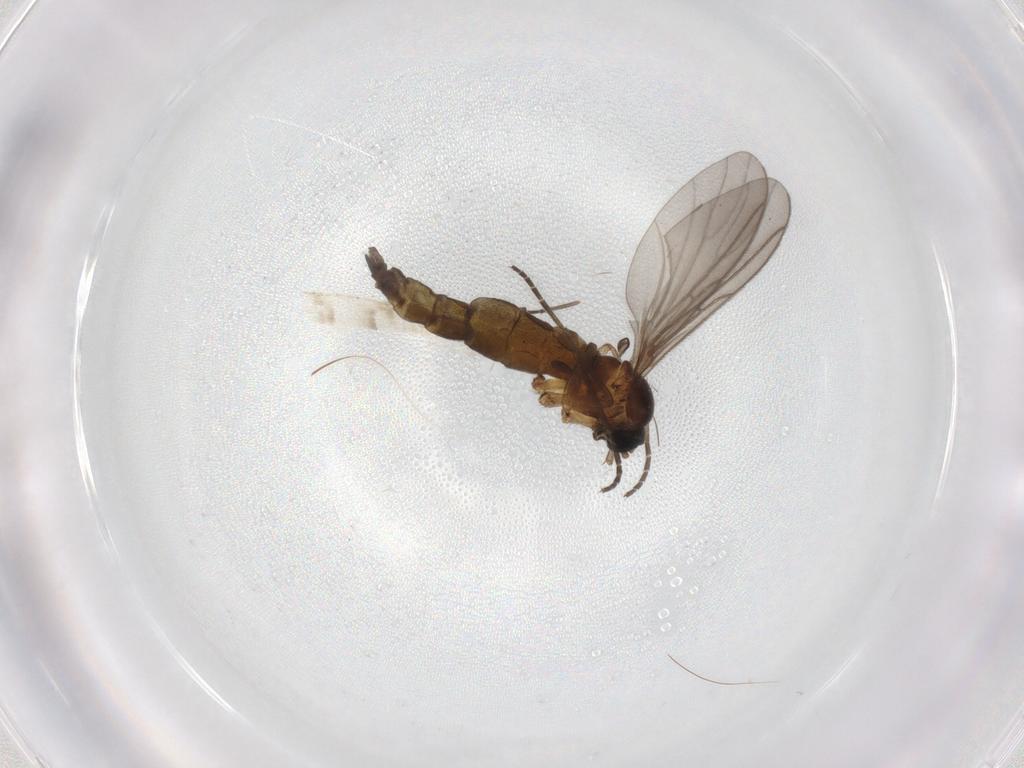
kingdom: Animalia
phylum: Arthropoda
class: Insecta
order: Diptera
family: Sciaridae
